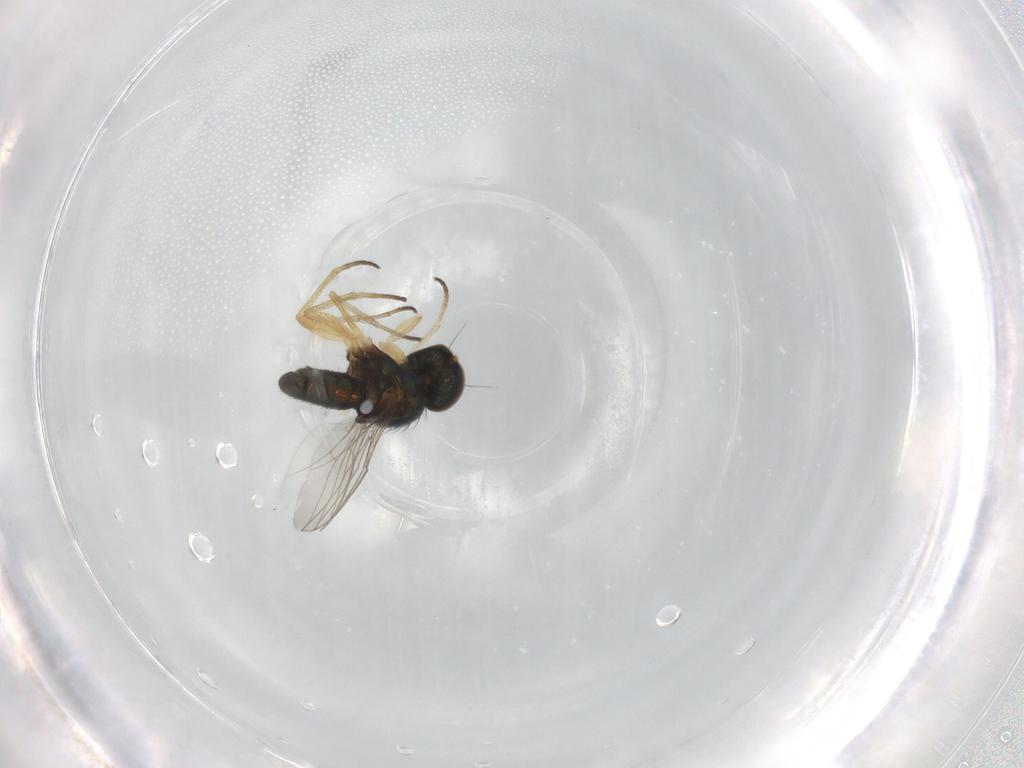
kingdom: Animalia
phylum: Arthropoda
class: Insecta
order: Diptera
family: Dolichopodidae
